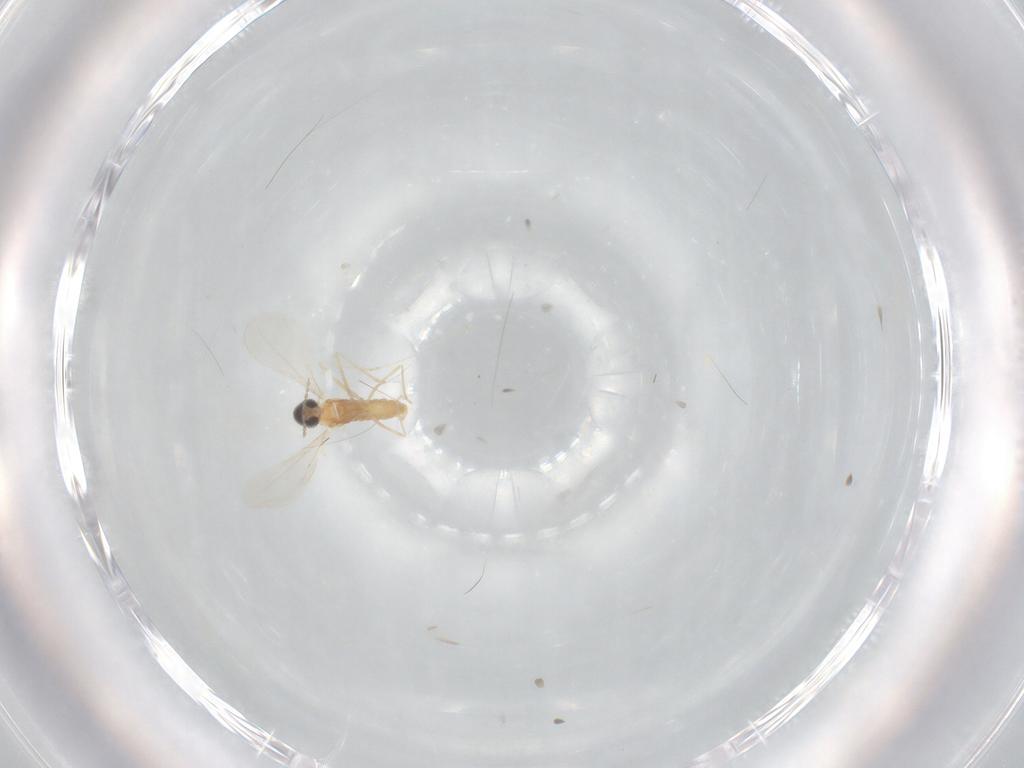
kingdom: Animalia
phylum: Arthropoda
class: Insecta
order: Diptera
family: Cecidomyiidae
